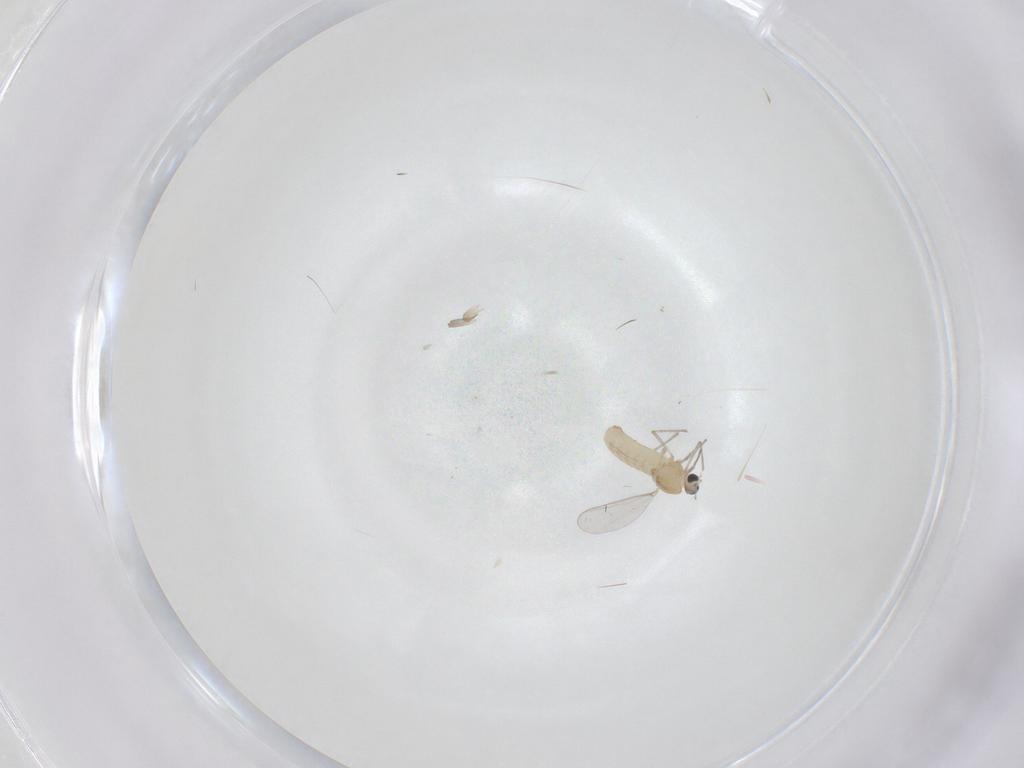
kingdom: Animalia
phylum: Arthropoda
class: Insecta
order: Diptera
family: Chironomidae
